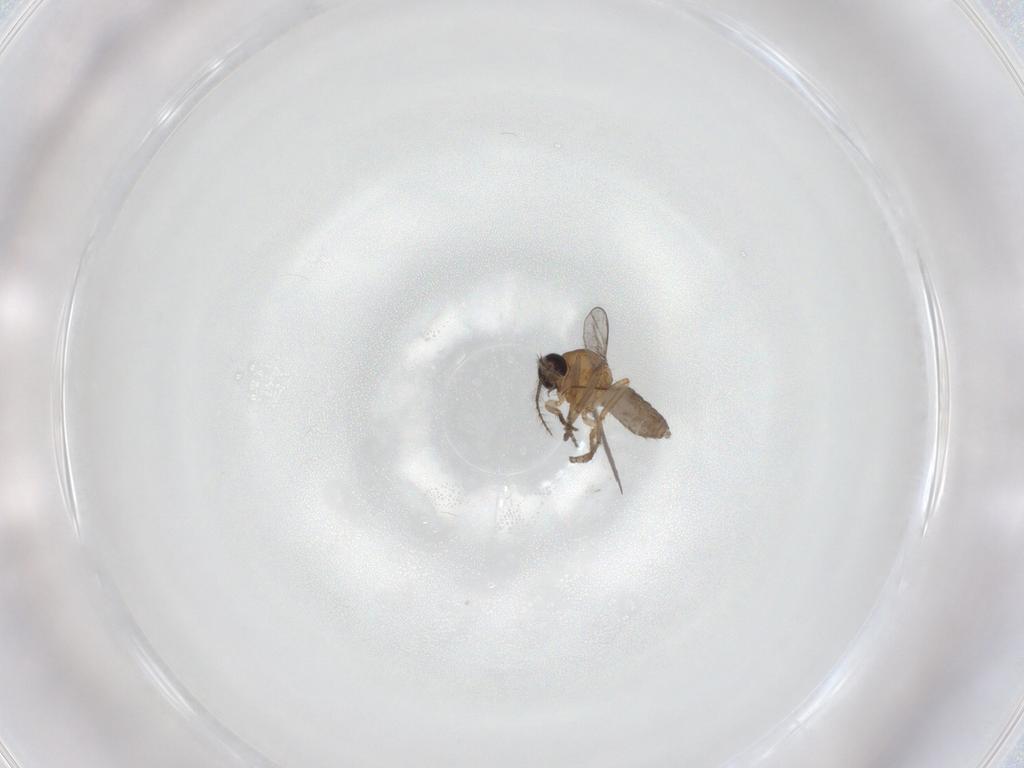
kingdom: Animalia
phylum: Arthropoda
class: Insecta
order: Diptera
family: Ceratopogonidae
